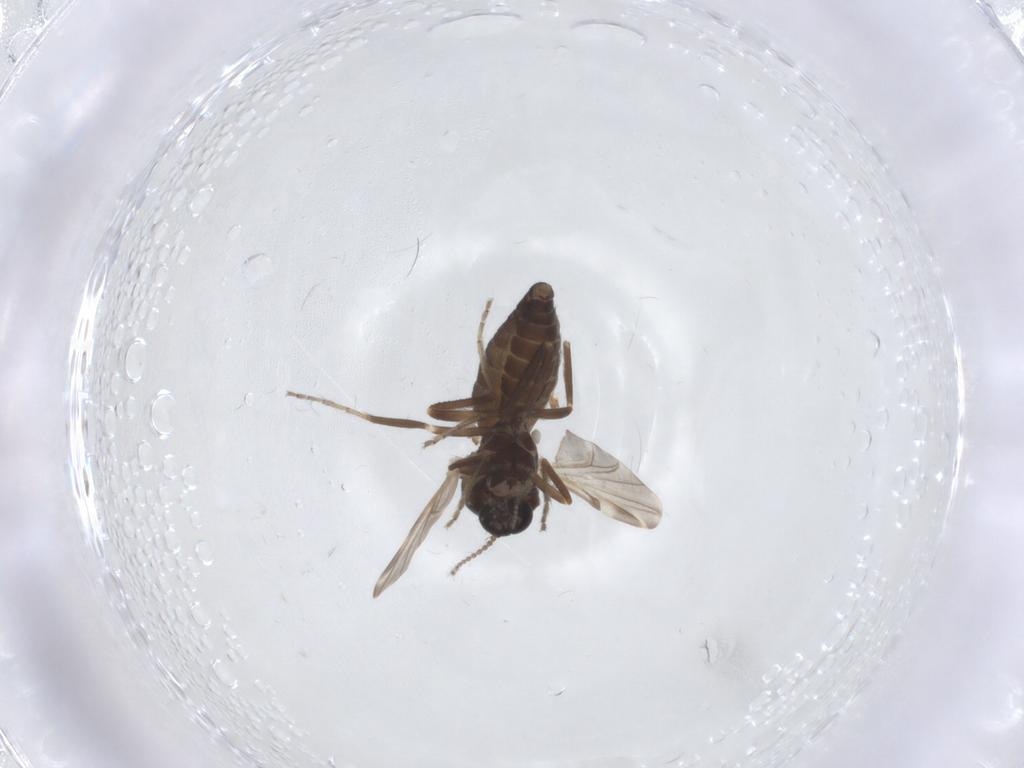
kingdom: Animalia
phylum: Arthropoda
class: Insecta
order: Diptera
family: Ceratopogonidae
